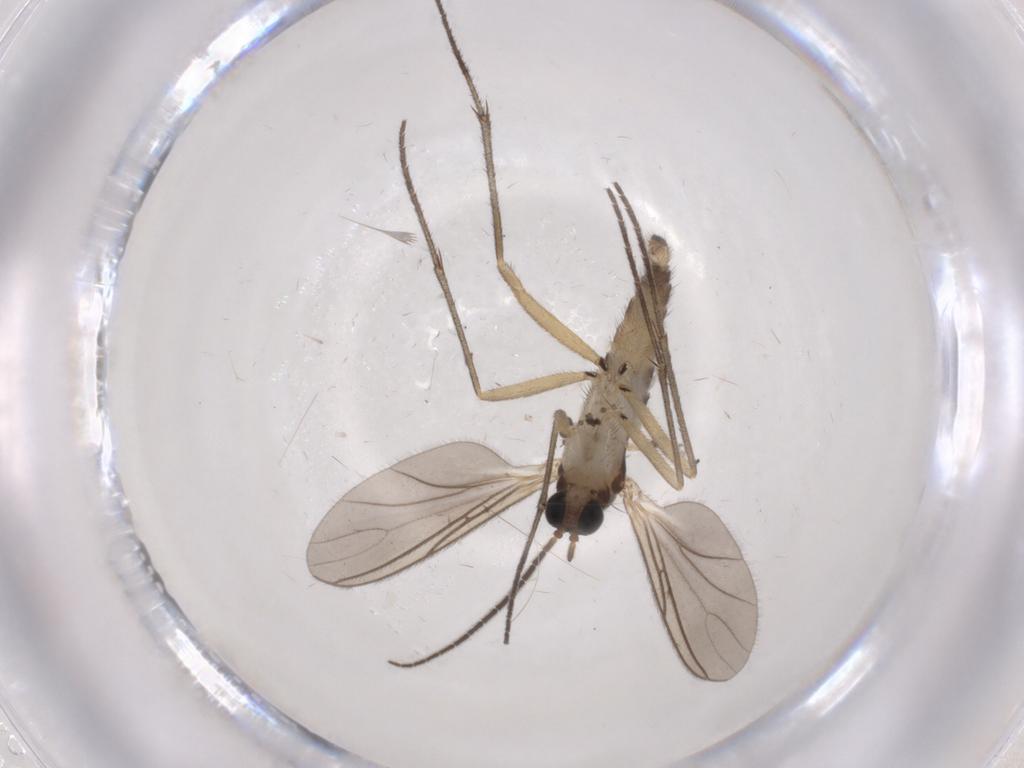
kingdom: Animalia
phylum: Arthropoda
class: Insecta
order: Diptera
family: Sciaridae
